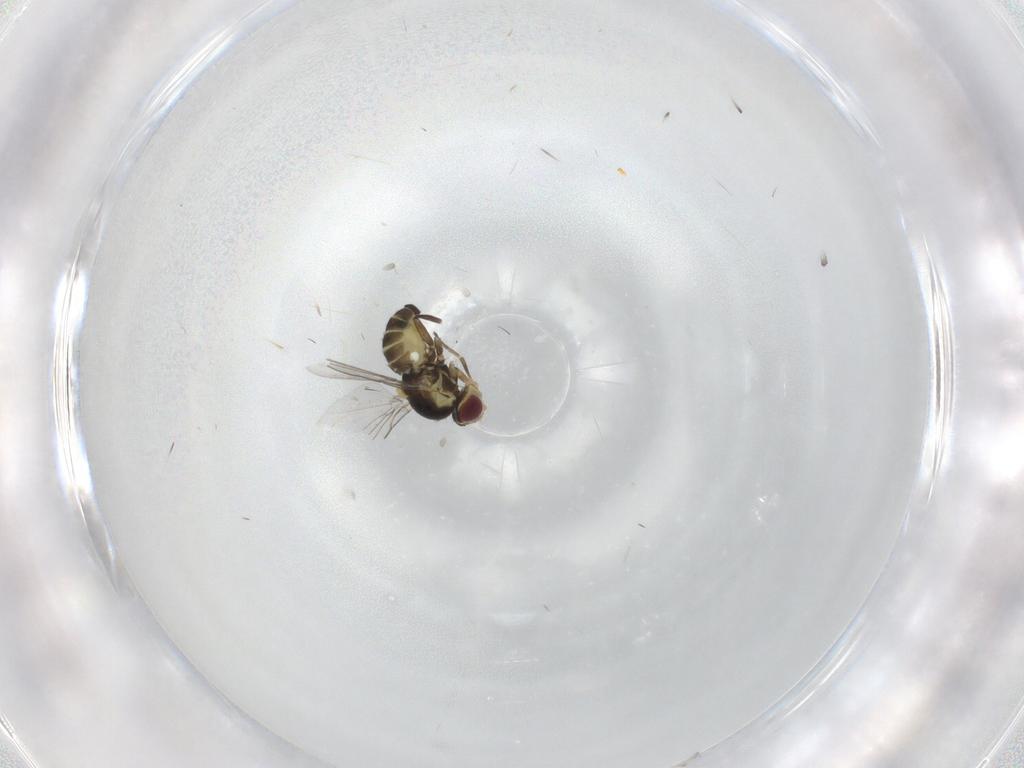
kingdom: Animalia
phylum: Arthropoda
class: Insecta
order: Diptera
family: Agromyzidae
